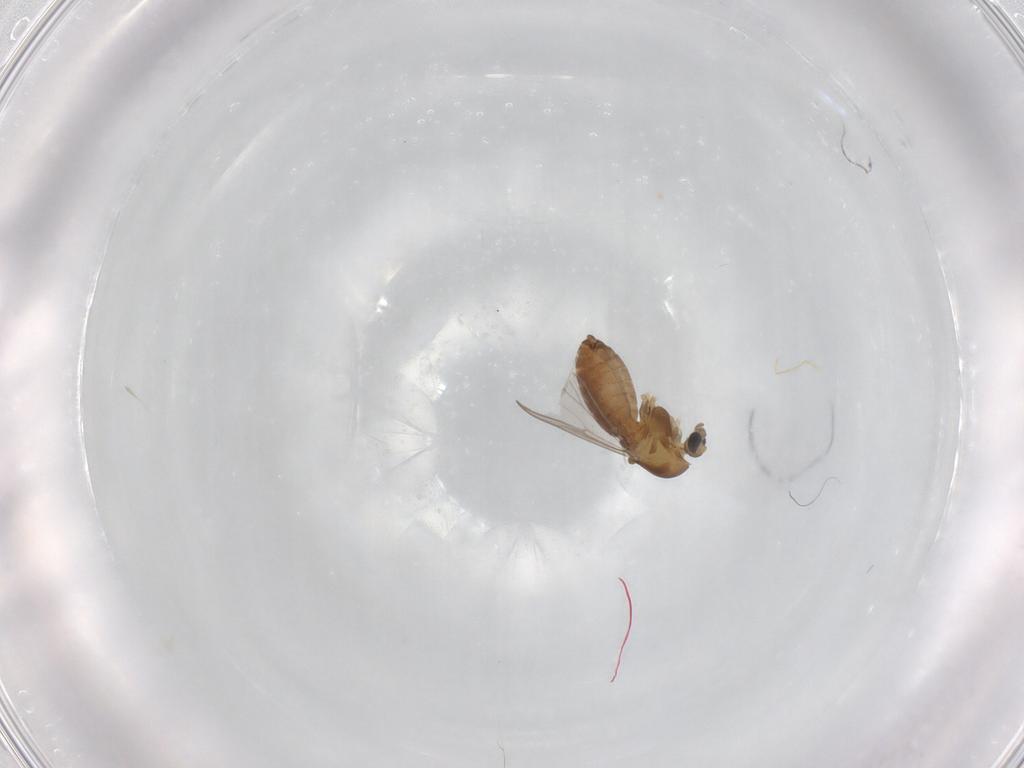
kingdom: Animalia
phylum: Arthropoda
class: Insecta
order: Diptera
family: Chironomidae
